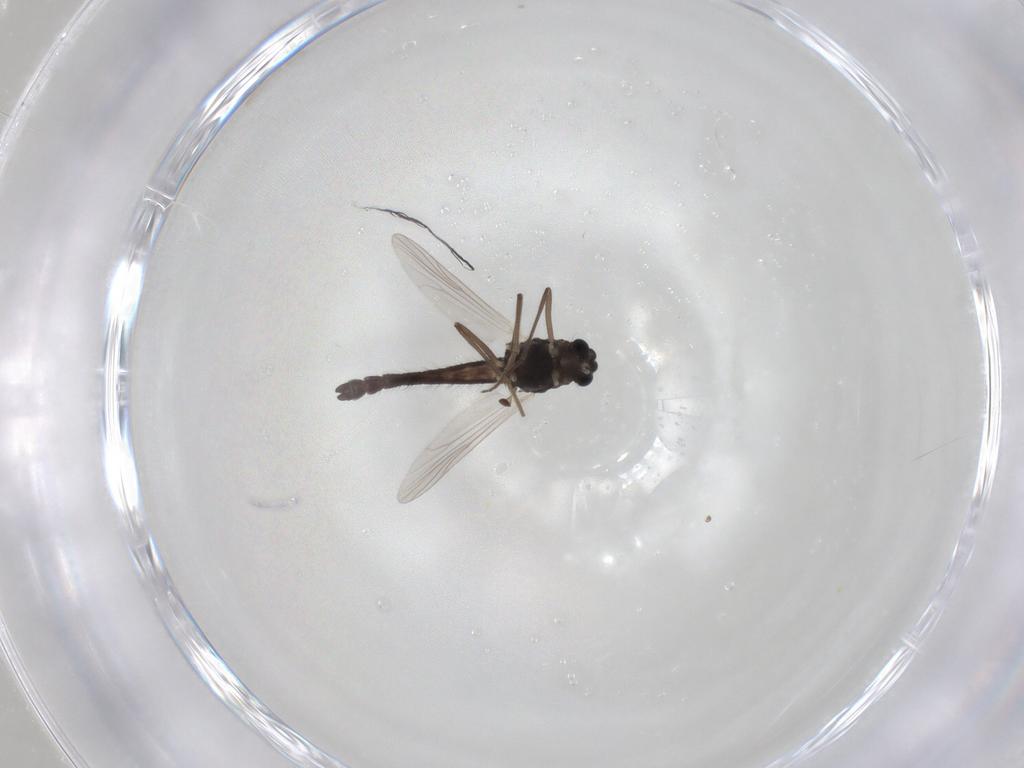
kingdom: Animalia
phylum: Arthropoda
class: Insecta
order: Diptera
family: Chironomidae
